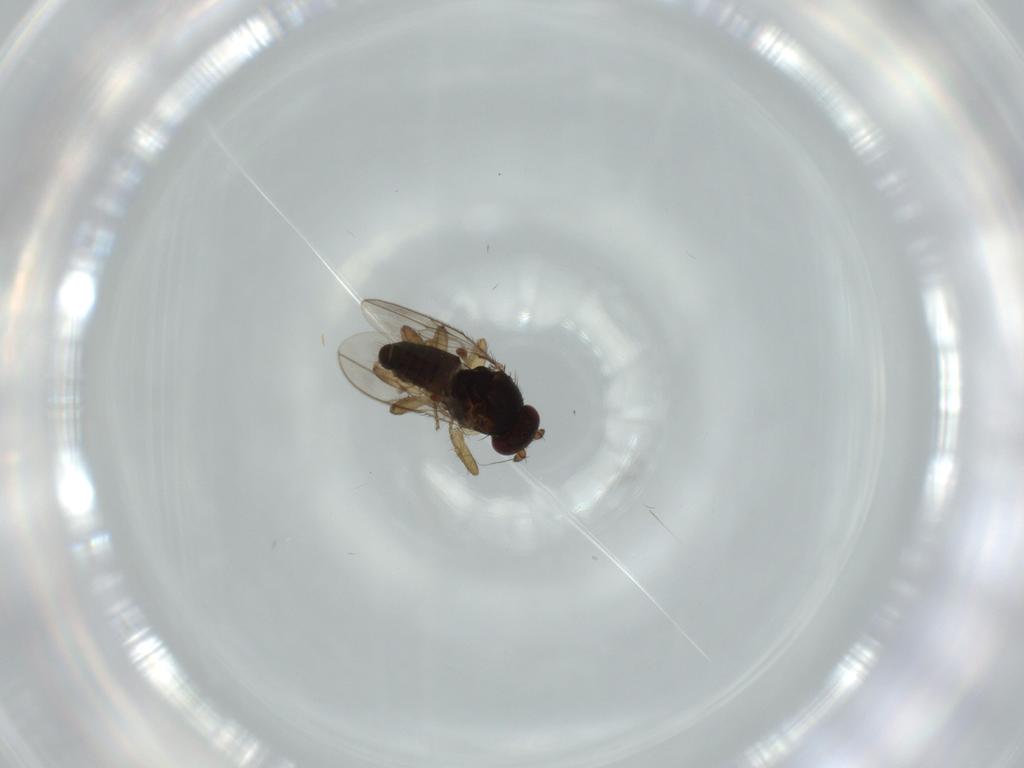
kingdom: Animalia
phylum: Arthropoda
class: Insecta
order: Diptera
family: Sphaeroceridae
